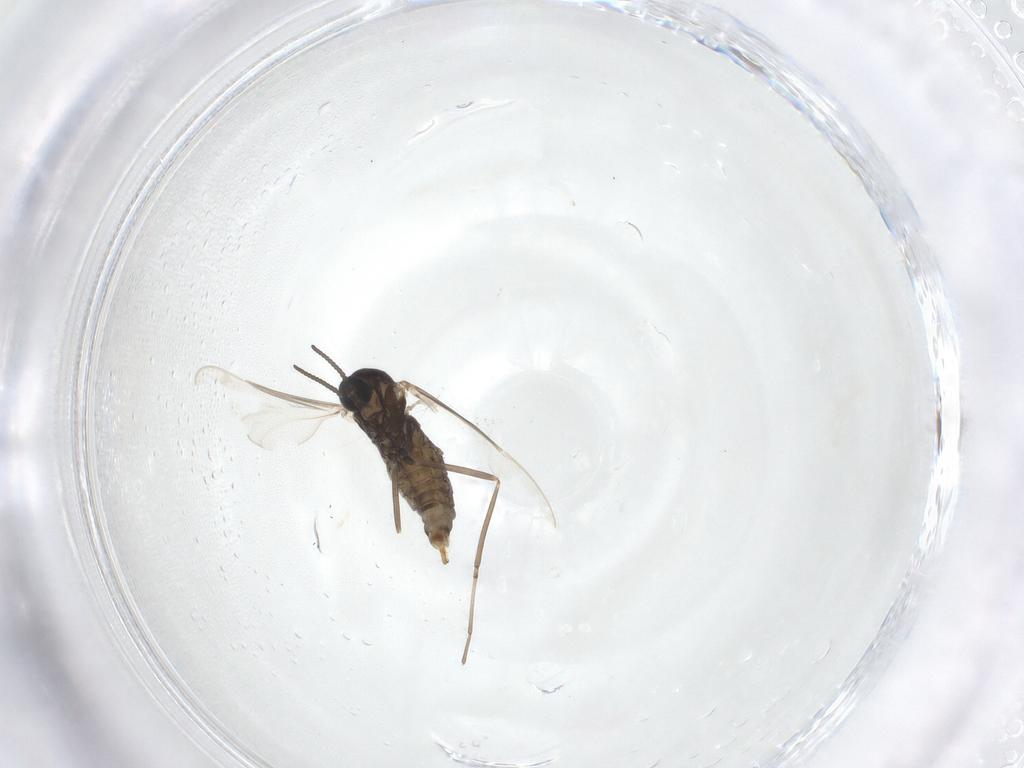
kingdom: Animalia
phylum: Arthropoda
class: Insecta
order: Diptera
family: Cecidomyiidae
